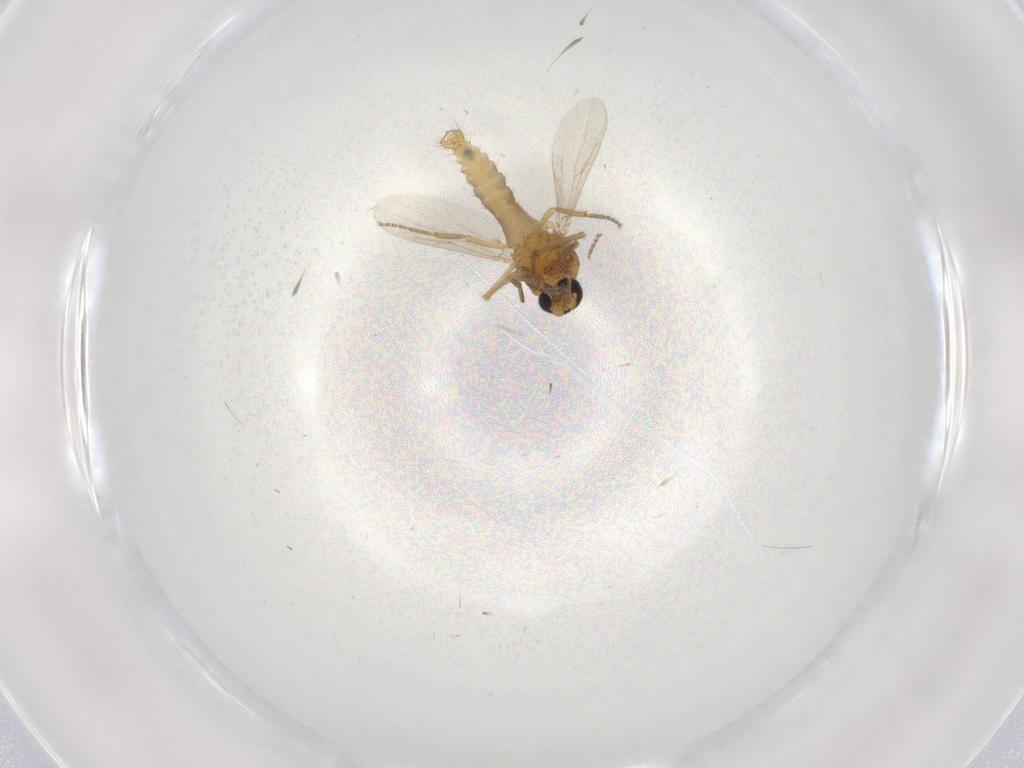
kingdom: Animalia
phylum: Arthropoda
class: Insecta
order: Diptera
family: Ceratopogonidae
